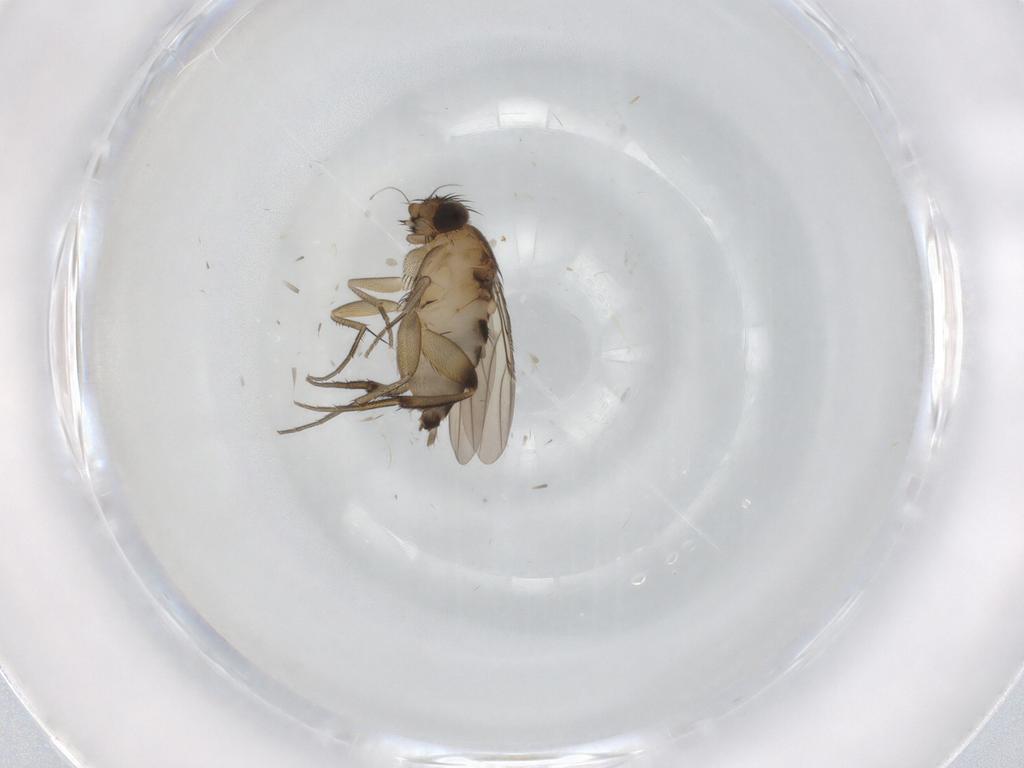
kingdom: Animalia
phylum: Arthropoda
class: Insecta
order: Diptera
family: Phoridae
